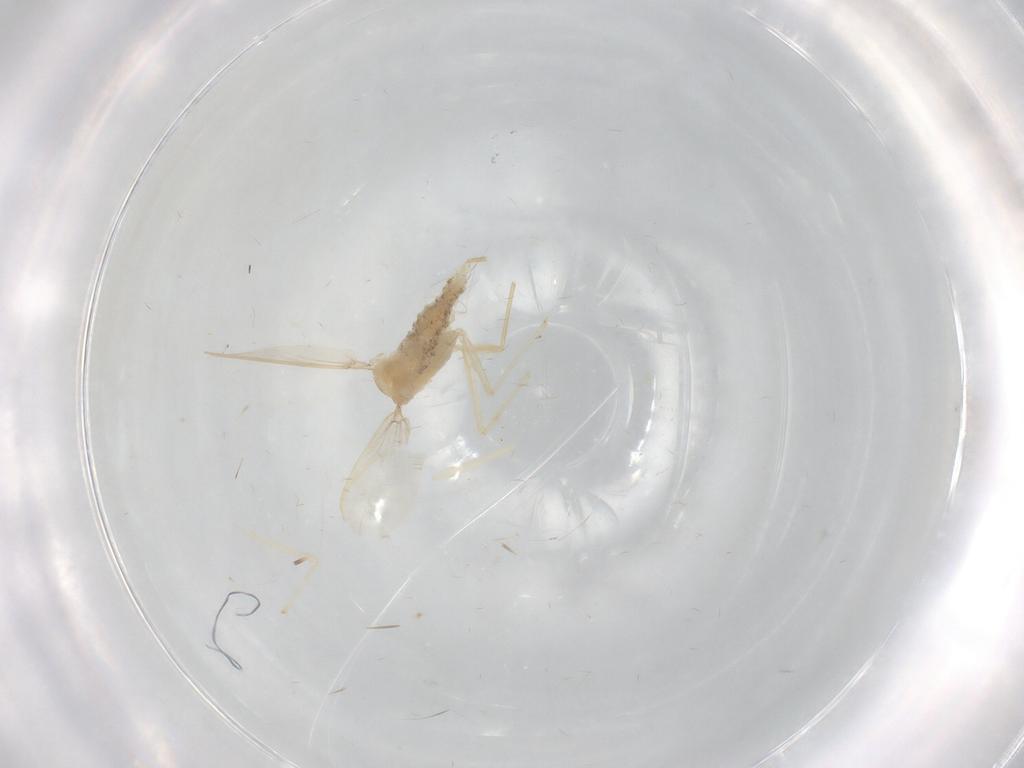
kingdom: Animalia
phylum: Arthropoda
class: Insecta
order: Diptera
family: Chironomidae
